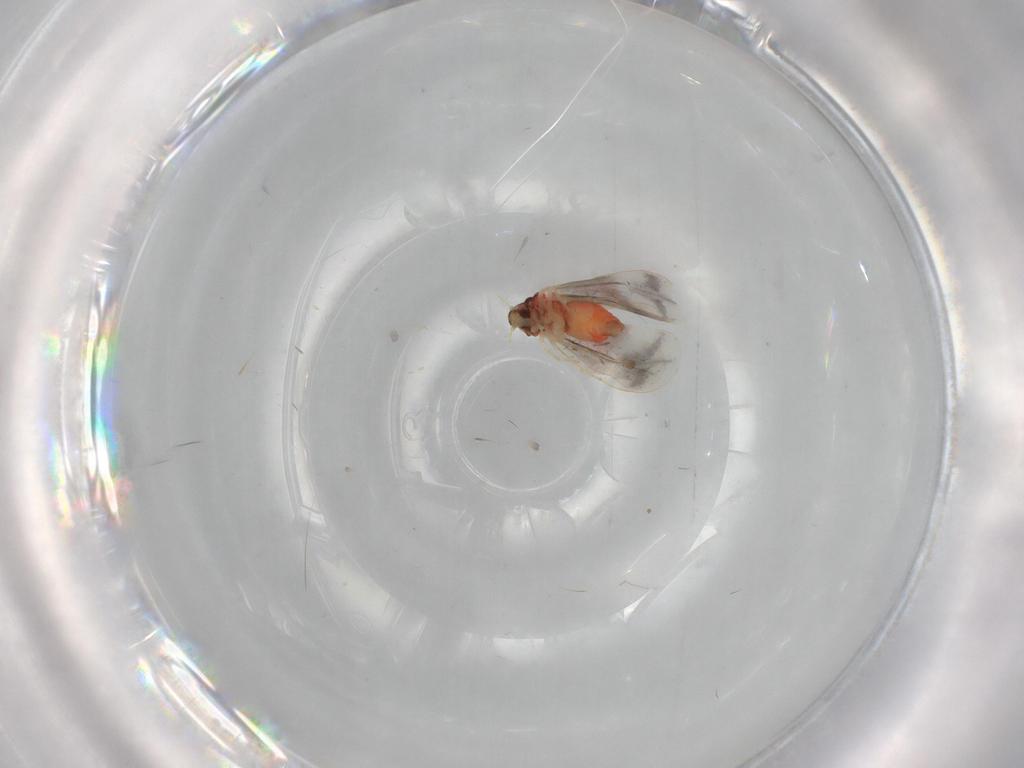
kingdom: Animalia
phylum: Arthropoda
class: Insecta
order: Hemiptera
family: Aleyrodidae
